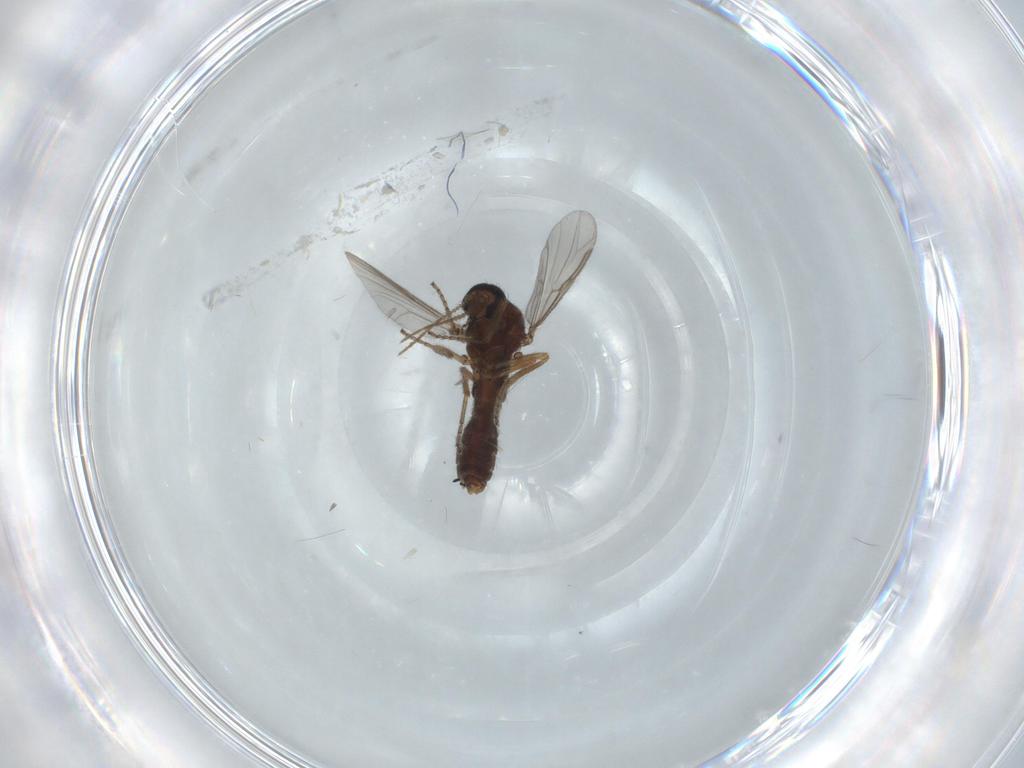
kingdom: Animalia
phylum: Arthropoda
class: Insecta
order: Diptera
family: Ceratopogonidae
